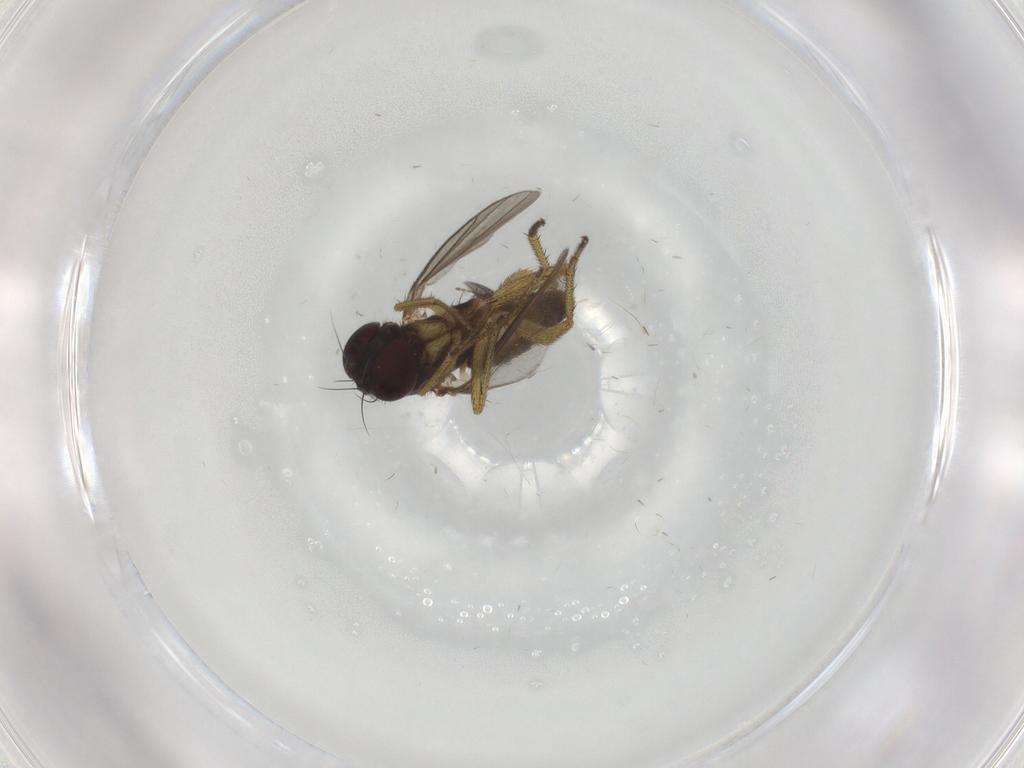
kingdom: Animalia
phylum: Arthropoda
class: Insecta
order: Diptera
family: Dolichopodidae
